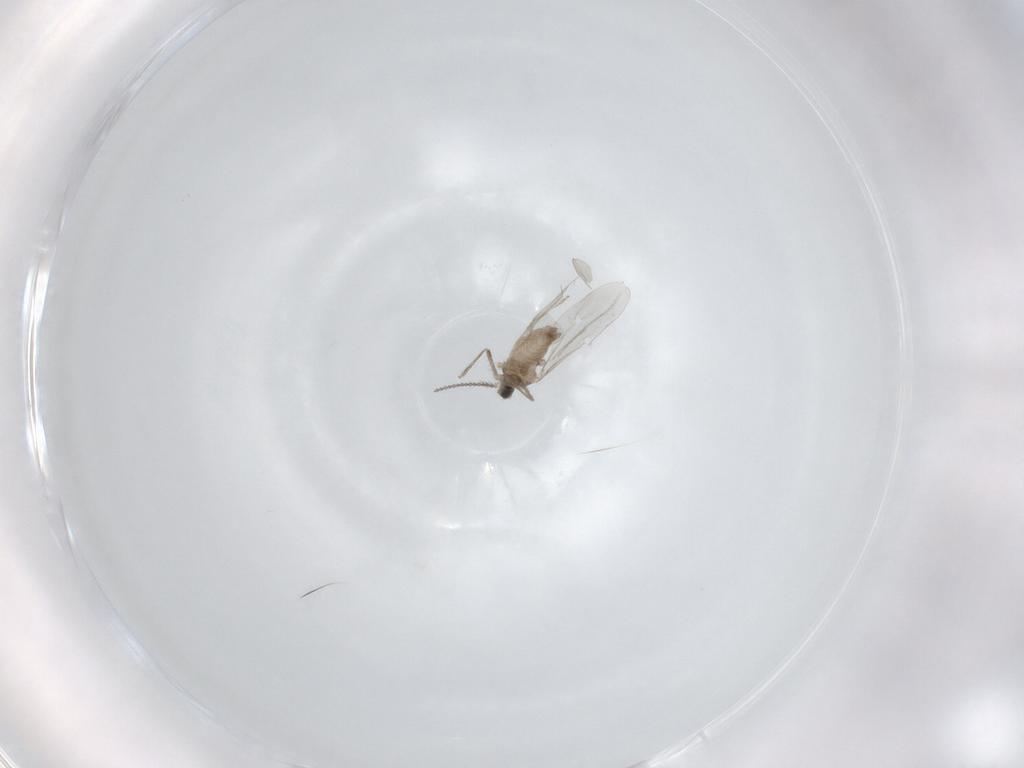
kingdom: Animalia
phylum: Arthropoda
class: Insecta
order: Diptera
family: Cecidomyiidae
